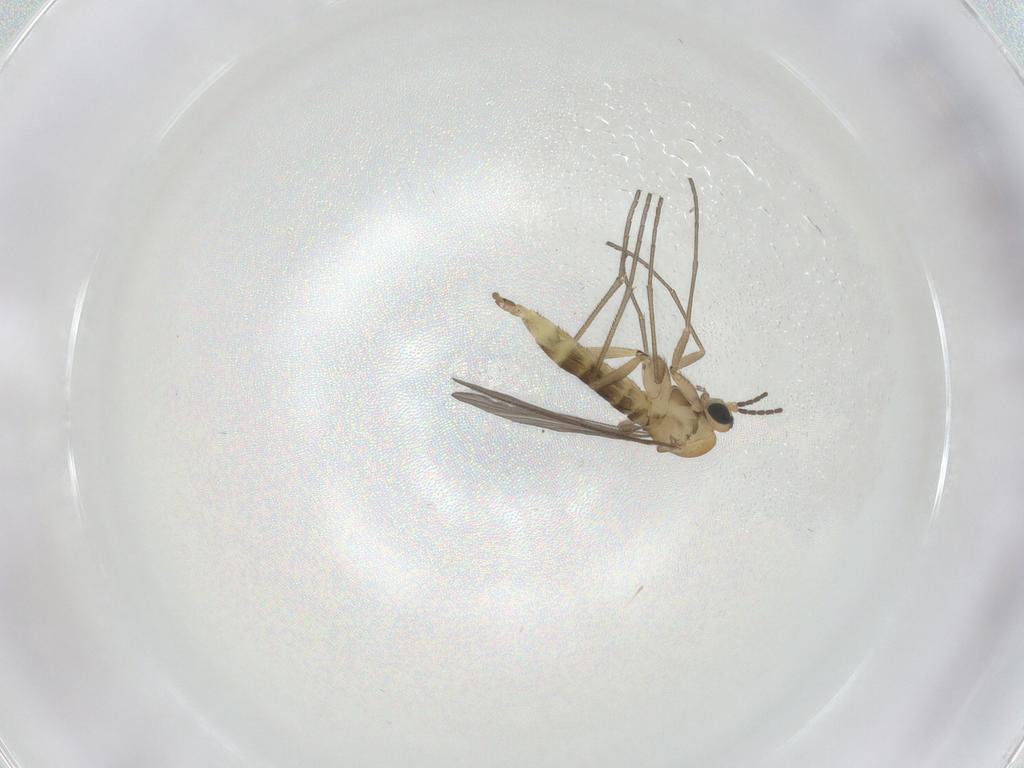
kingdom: Animalia
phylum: Arthropoda
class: Insecta
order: Diptera
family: Sciaridae
